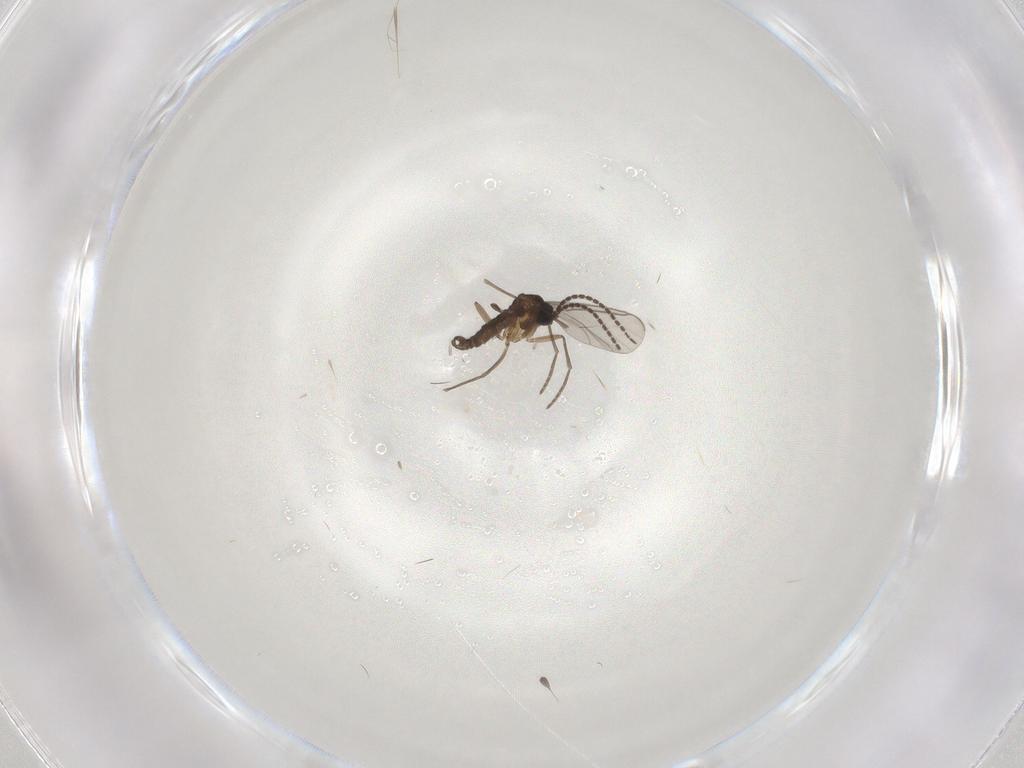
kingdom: Animalia
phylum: Arthropoda
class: Insecta
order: Diptera
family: Sciaridae
